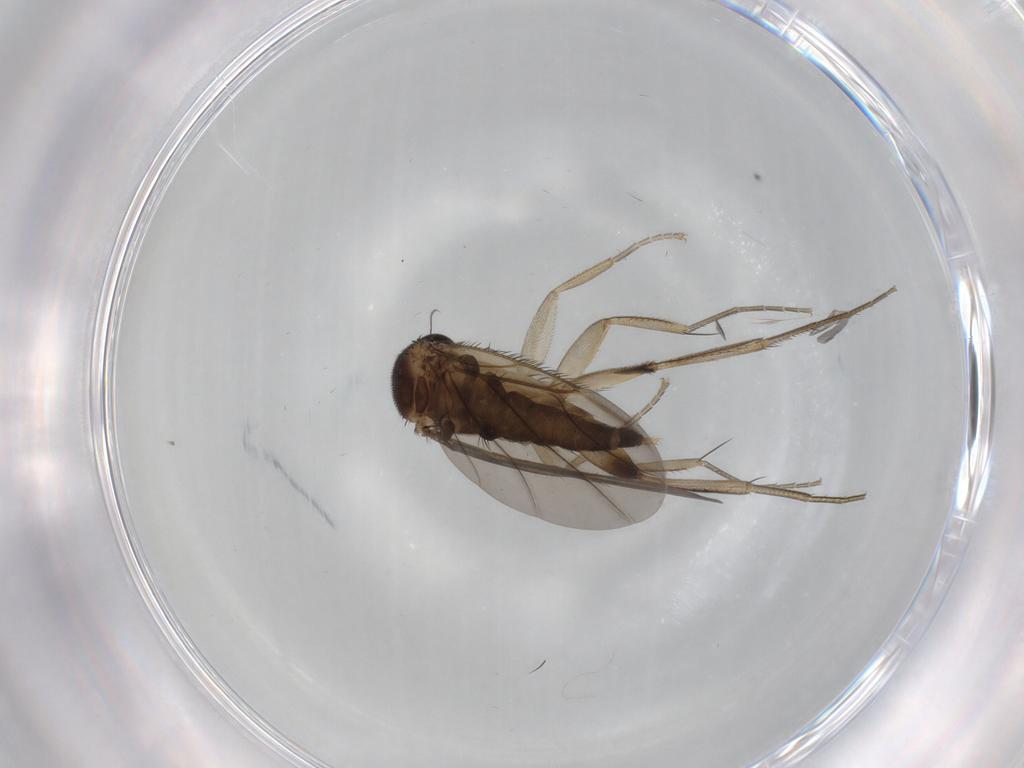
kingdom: Animalia
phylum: Arthropoda
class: Insecta
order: Diptera
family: Phoridae
